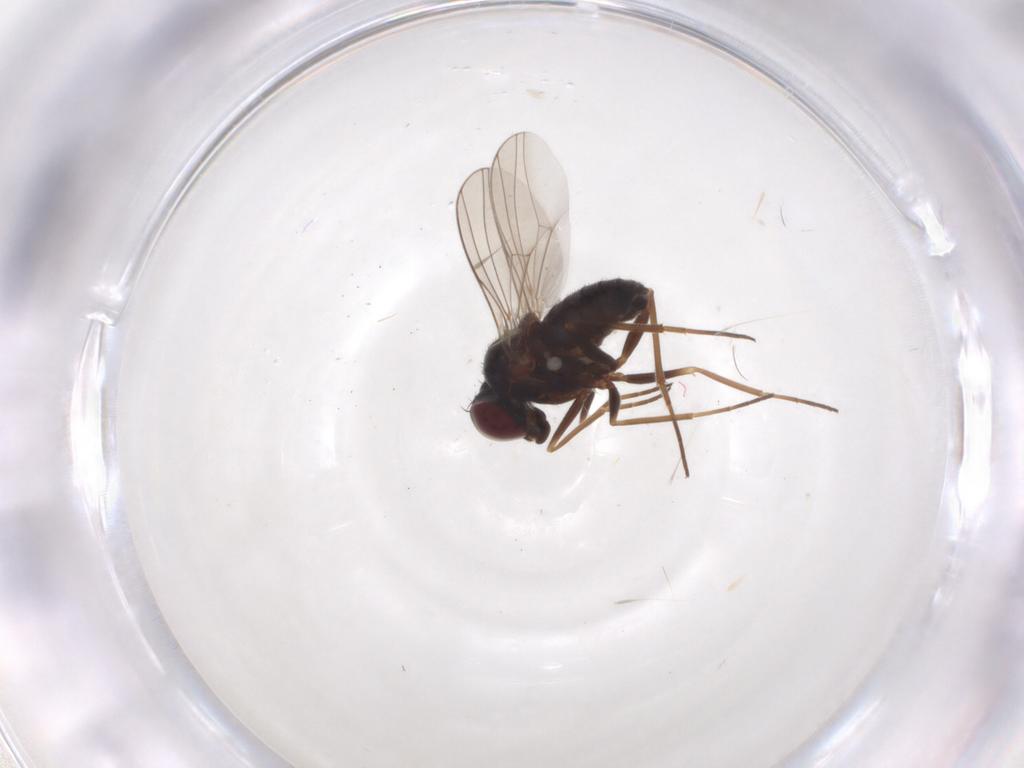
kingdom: Animalia
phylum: Arthropoda
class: Insecta
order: Diptera
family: Dolichopodidae
